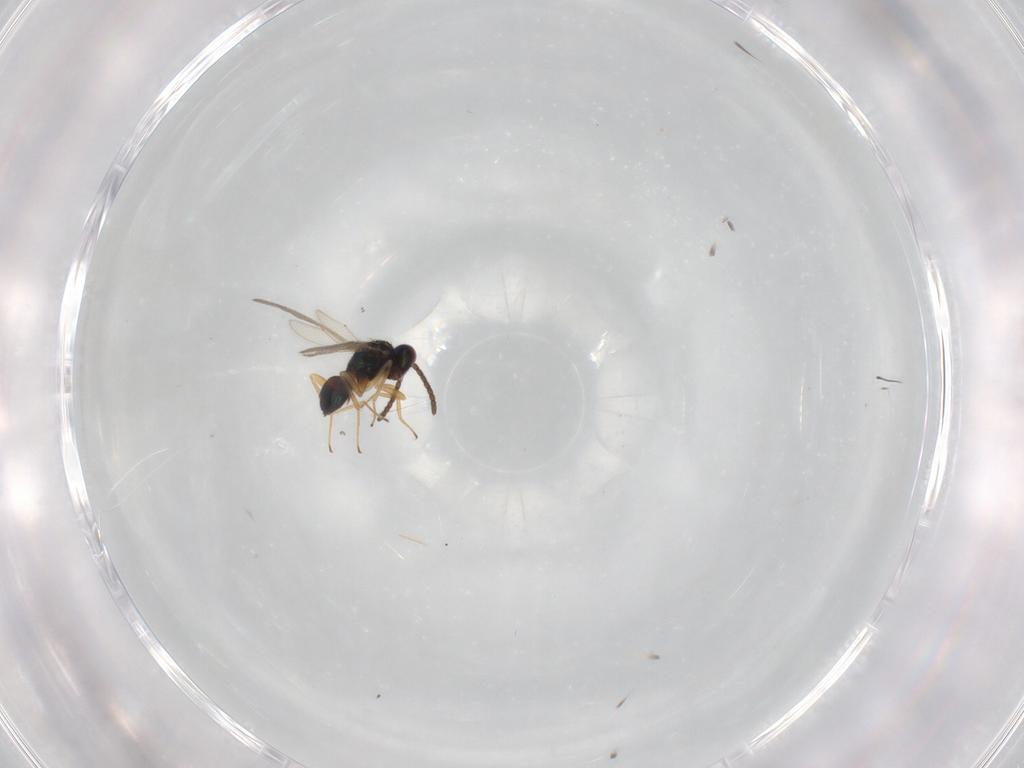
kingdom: Animalia
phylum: Arthropoda
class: Insecta
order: Hymenoptera
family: Tetracampidae
